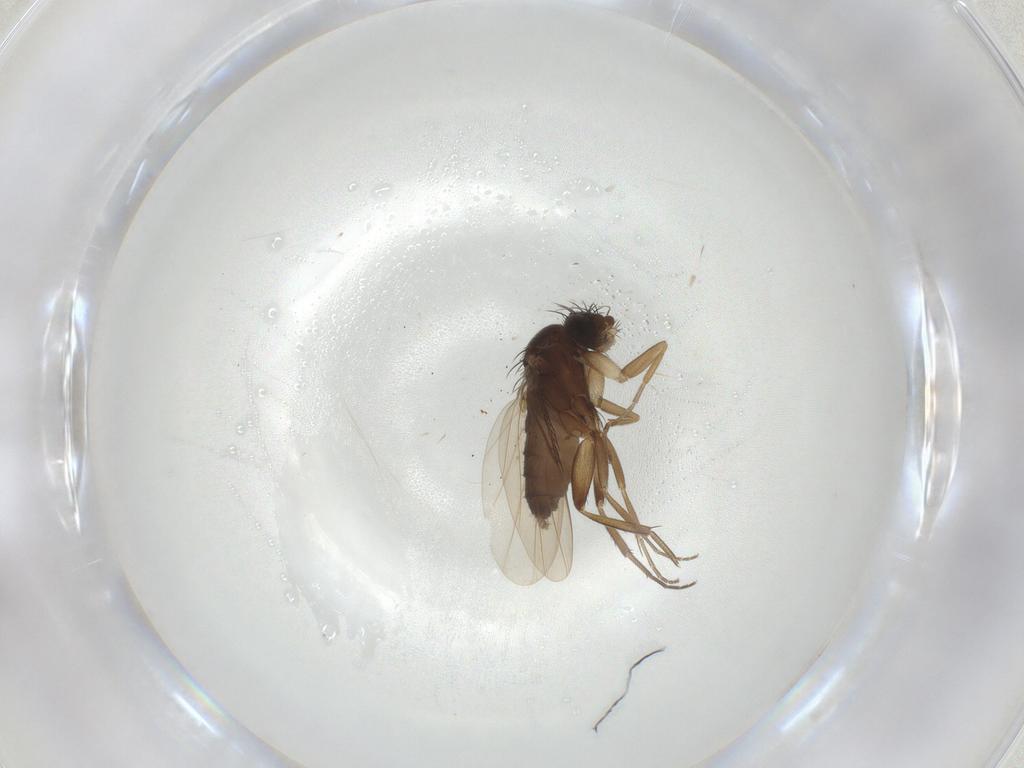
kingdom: Animalia
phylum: Arthropoda
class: Insecta
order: Diptera
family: Phoridae
